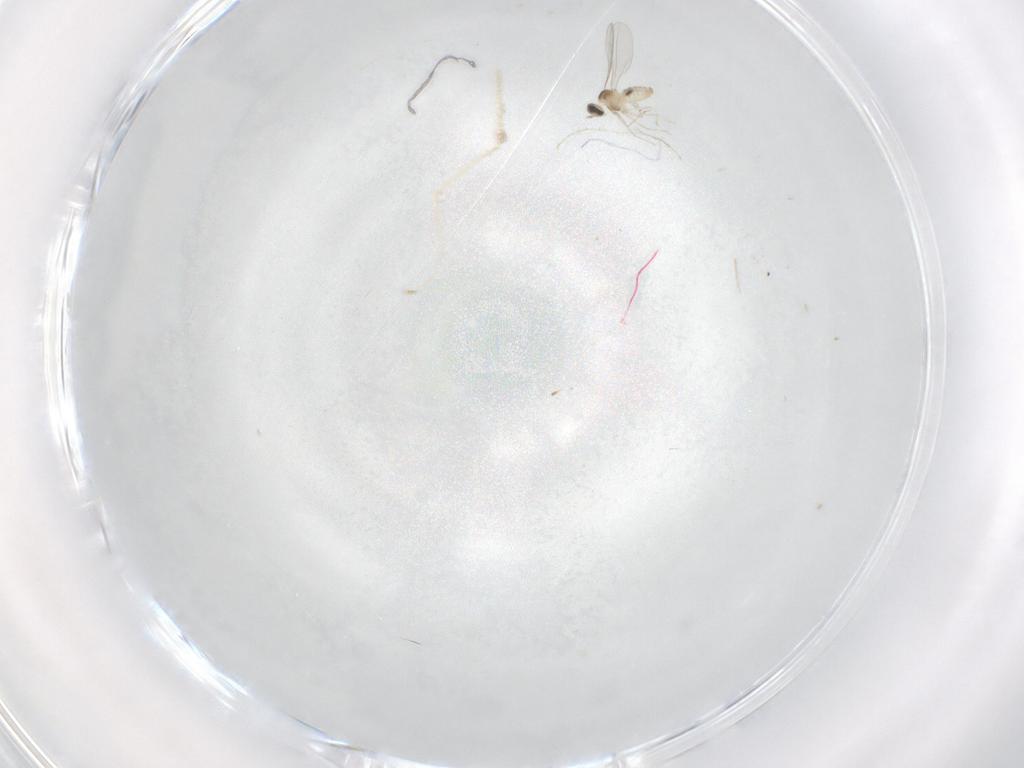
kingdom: Animalia
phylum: Arthropoda
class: Insecta
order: Diptera
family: Cecidomyiidae
